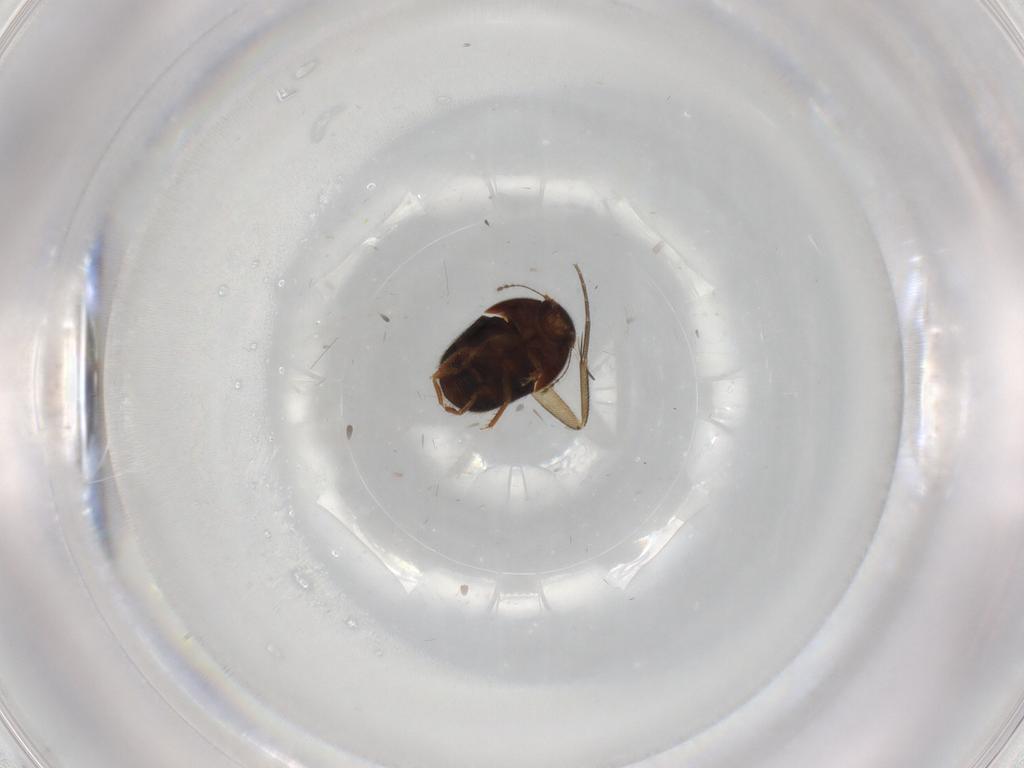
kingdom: Animalia
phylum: Arthropoda
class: Insecta
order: Coleoptera
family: Ptiliidae
